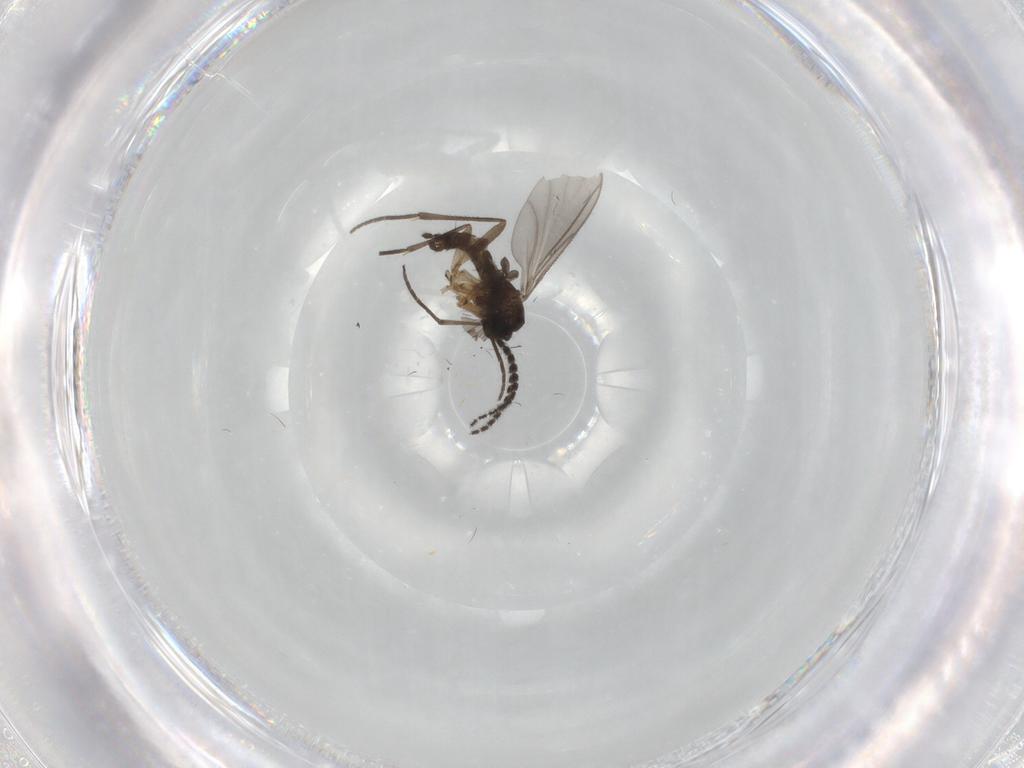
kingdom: Animalia
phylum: Arthropoda
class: Insecta
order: Diptera
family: Sciaridae
